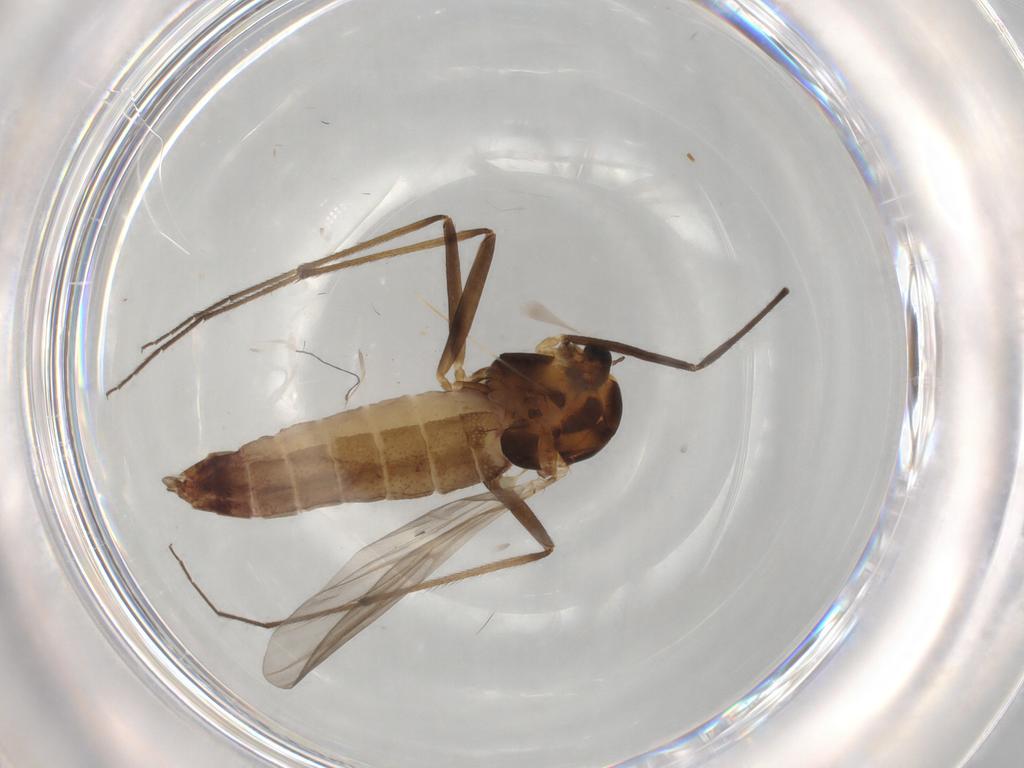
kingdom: Animalia
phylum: Arthropoda
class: Insecta
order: Diptera
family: Chironomidae
